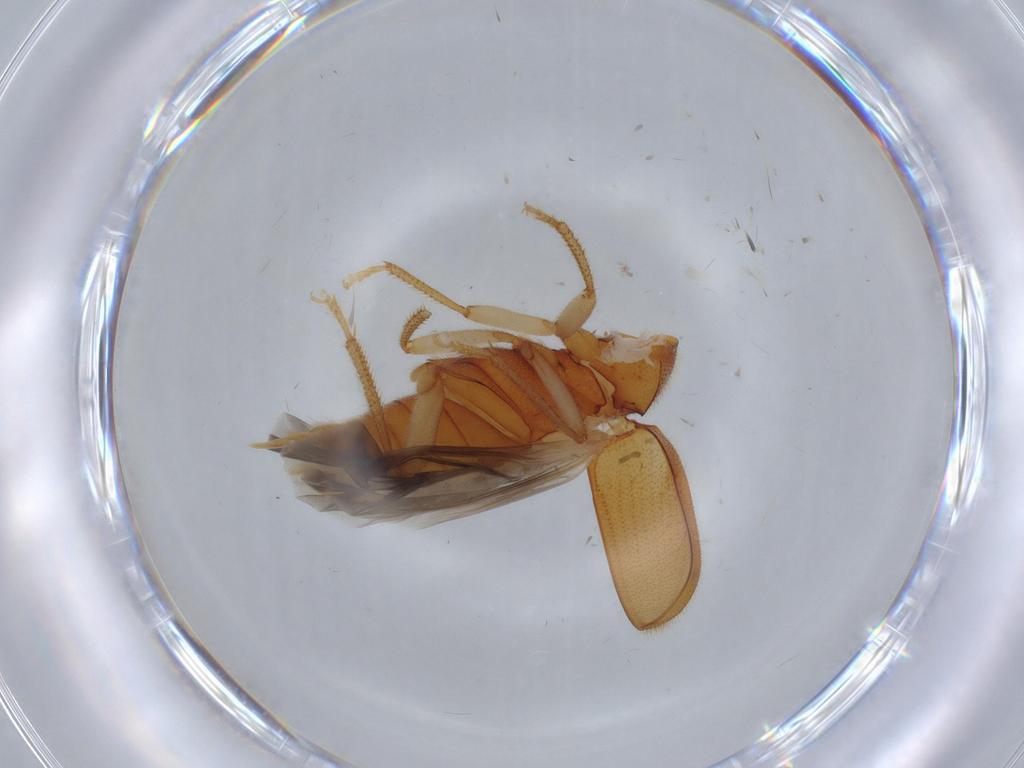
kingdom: Animalia
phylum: Arthropoda
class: Insecta
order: Coleoptera
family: Ptilodactylidae
